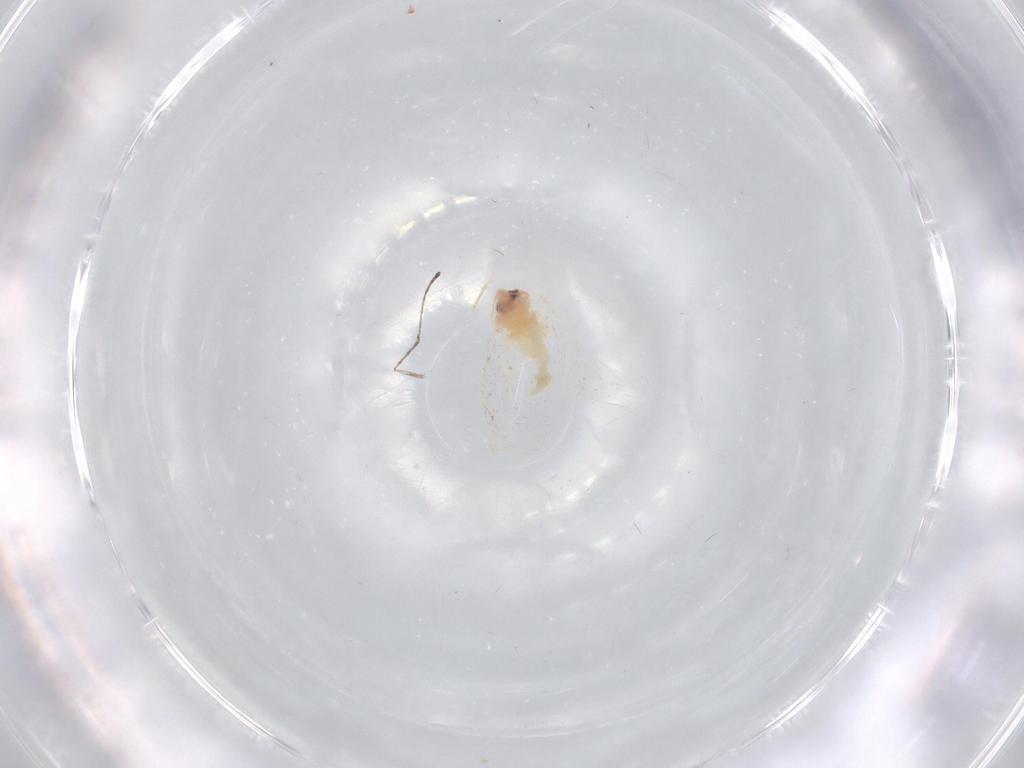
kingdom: Animalia
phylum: Arthropoda
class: Insecta
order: Hemiptera
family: Aleyrodidae
